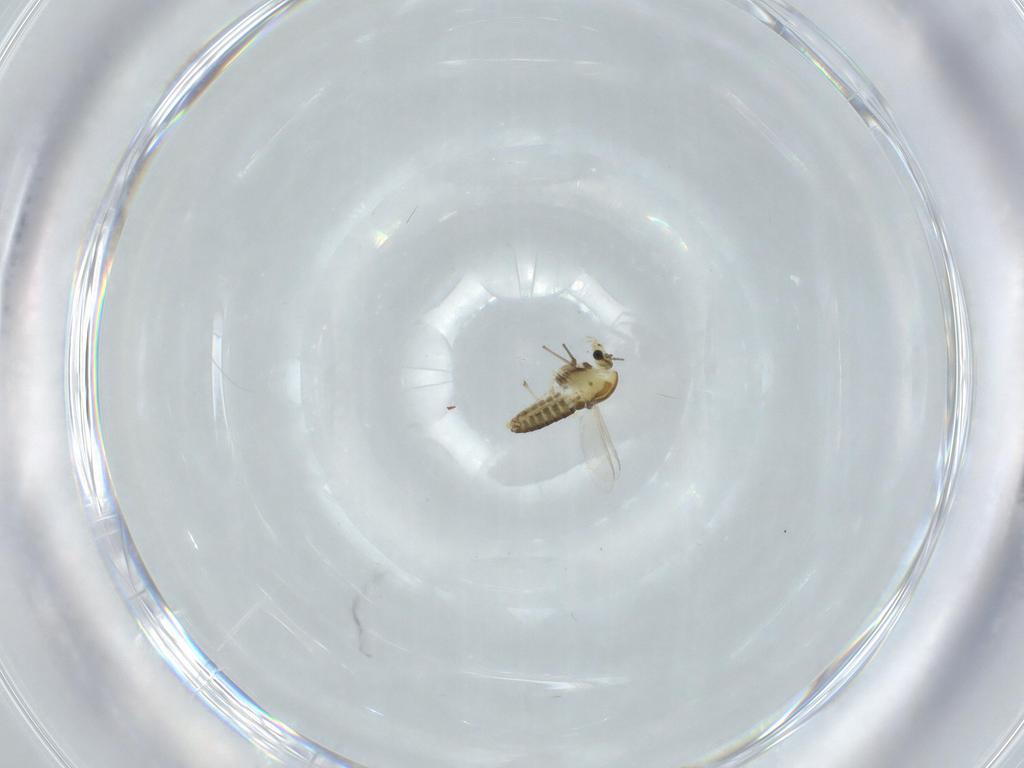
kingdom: Animalia
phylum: Arthropoda
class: Insecta
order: Diptera
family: Chironomidae
